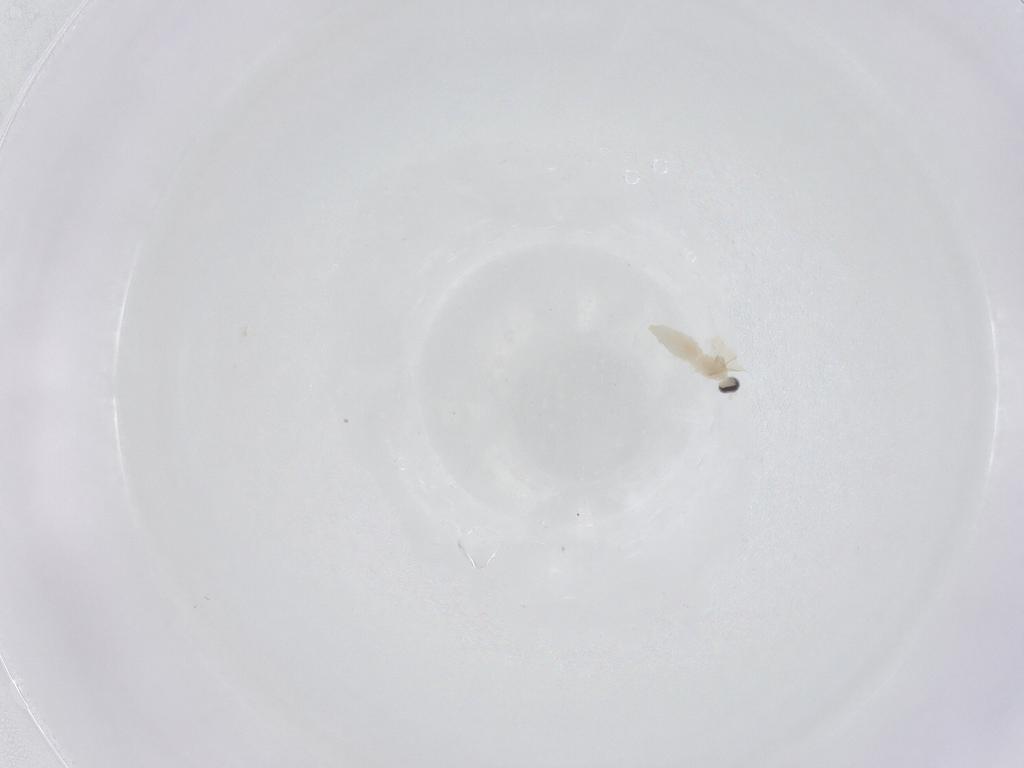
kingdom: Animalia
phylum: Arthropoda
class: Insecta
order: Diptera
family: Cecidomyiidae
